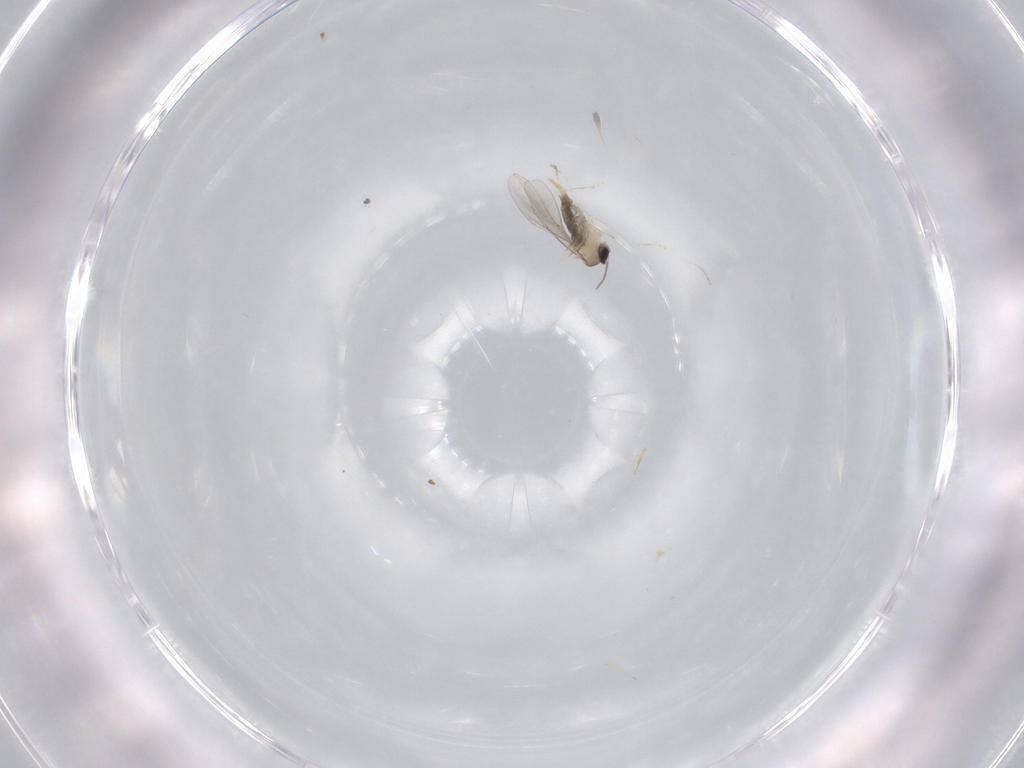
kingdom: Animalia
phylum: Arthropoda
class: Insecta
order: Diptera
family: Cecidomyiidae
